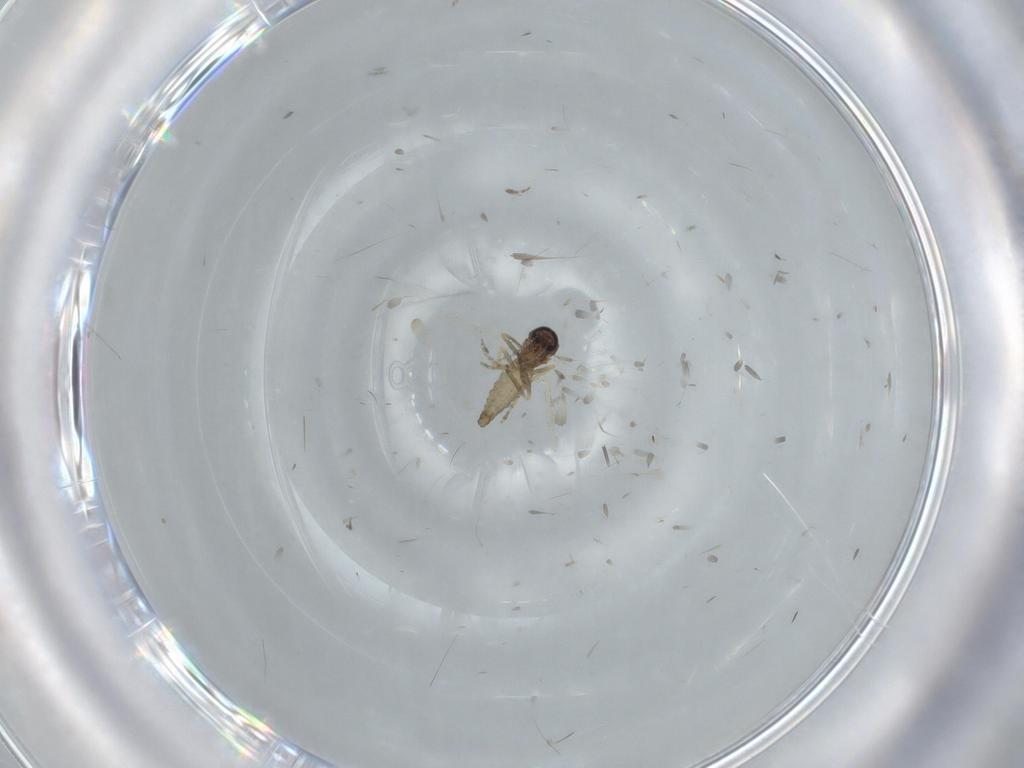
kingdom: Animalia
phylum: Arthropoda
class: Insecta
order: Diptera
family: Ceratopogonidae
